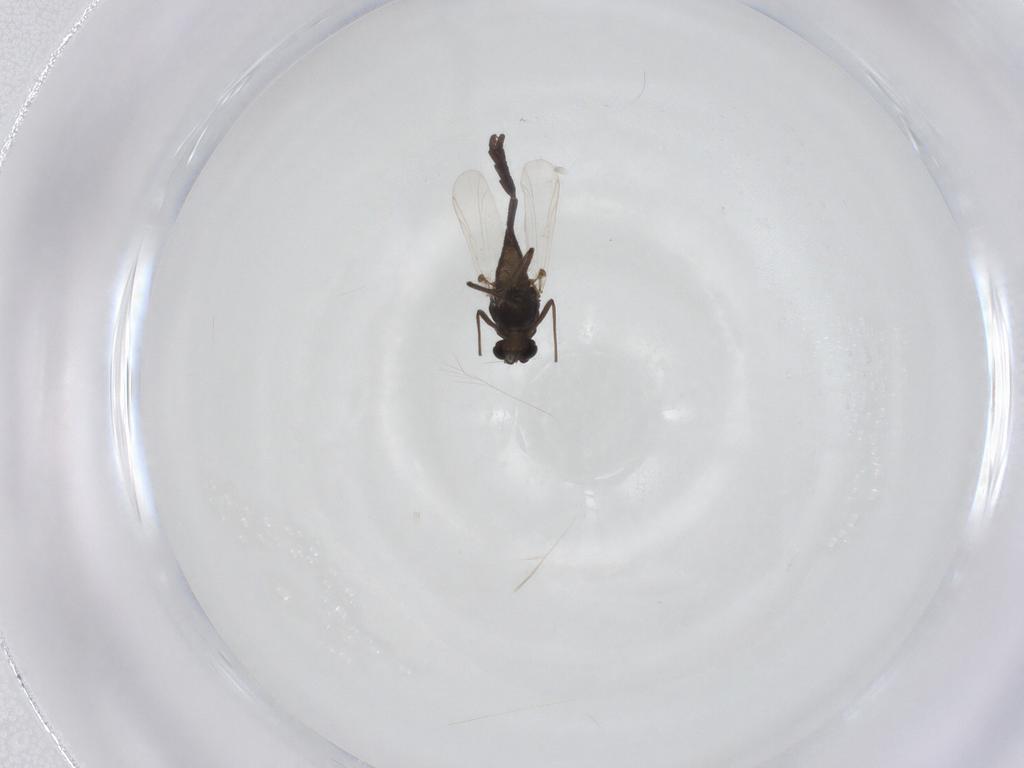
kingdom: Animalia
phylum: Arthropoda
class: Insecta
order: Diptera
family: Chironomidae
